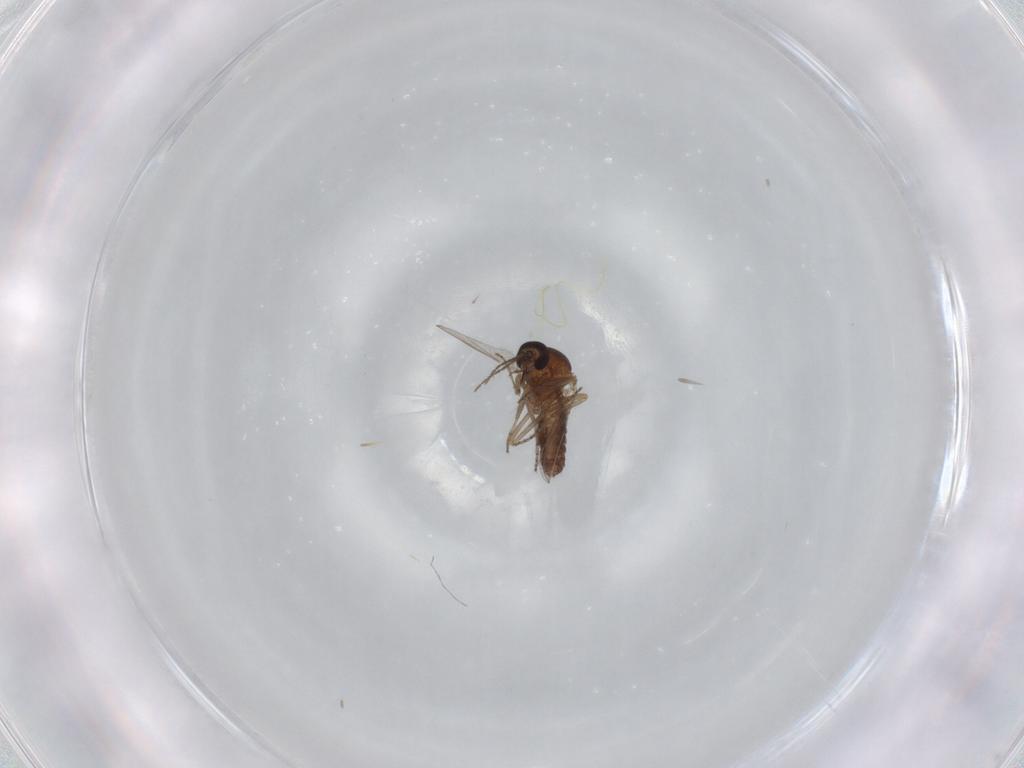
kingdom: Animalia
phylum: Arthropoda
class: Insecta
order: Diptera
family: Ceratopogonidae
